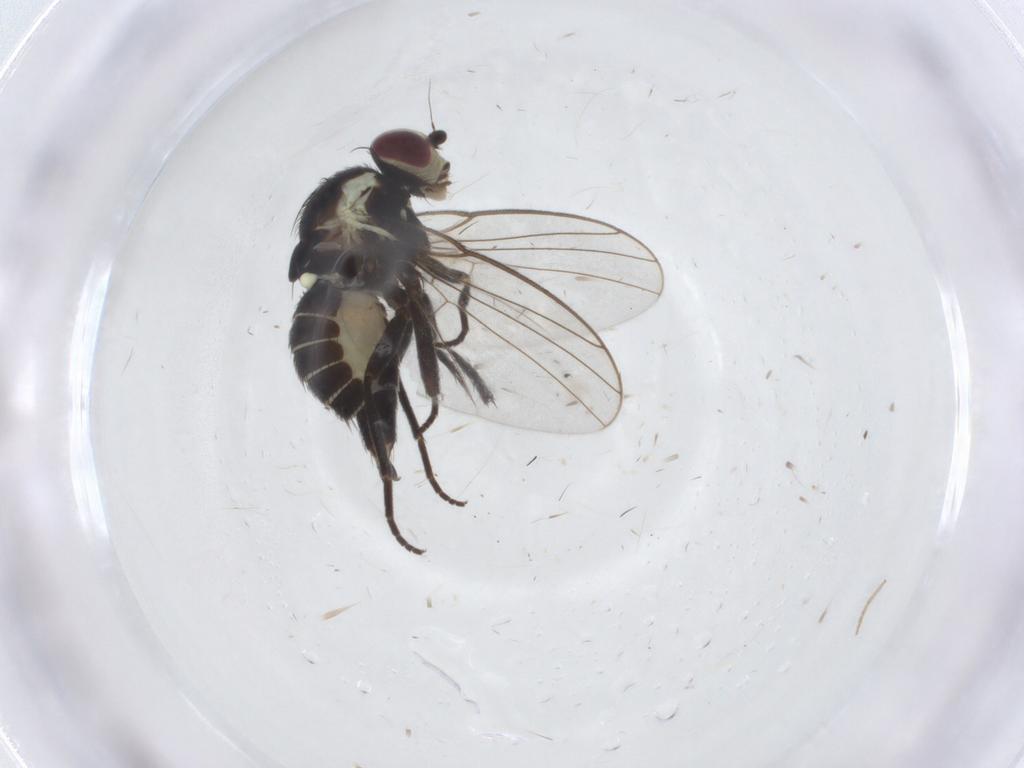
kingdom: Animalia
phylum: Arthropoda
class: Insecta
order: Diptera
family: Agromyzidae
